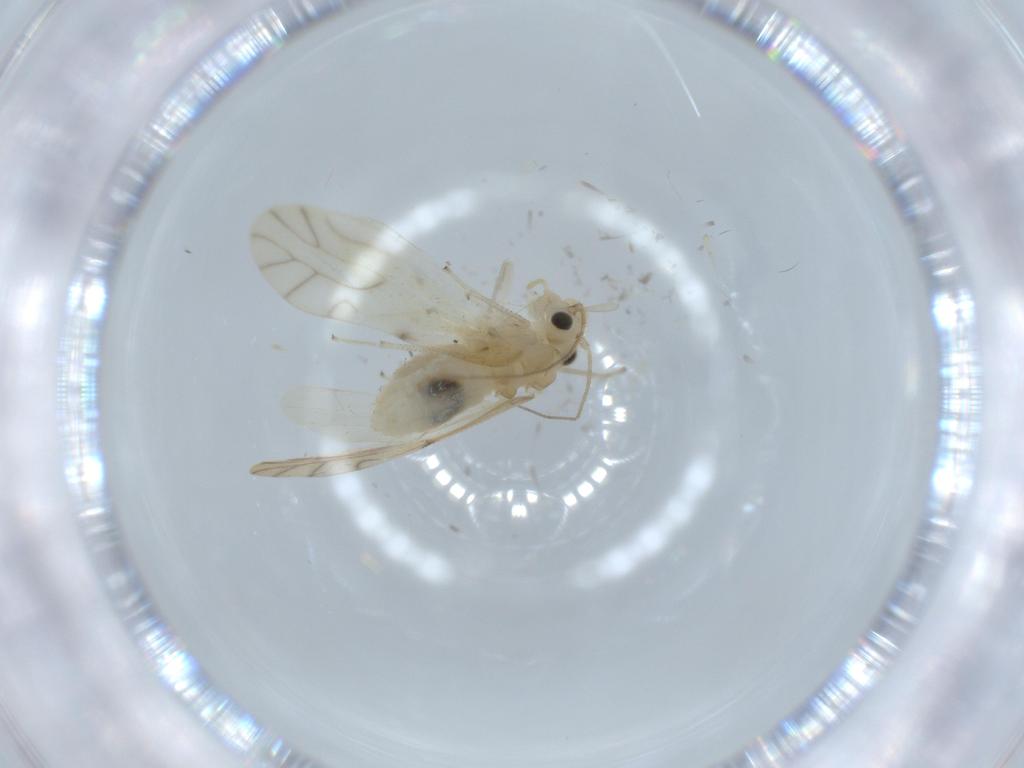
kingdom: Animalia
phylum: Arthropoda
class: Insecta
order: Psocodea
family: Caeciliusidae
